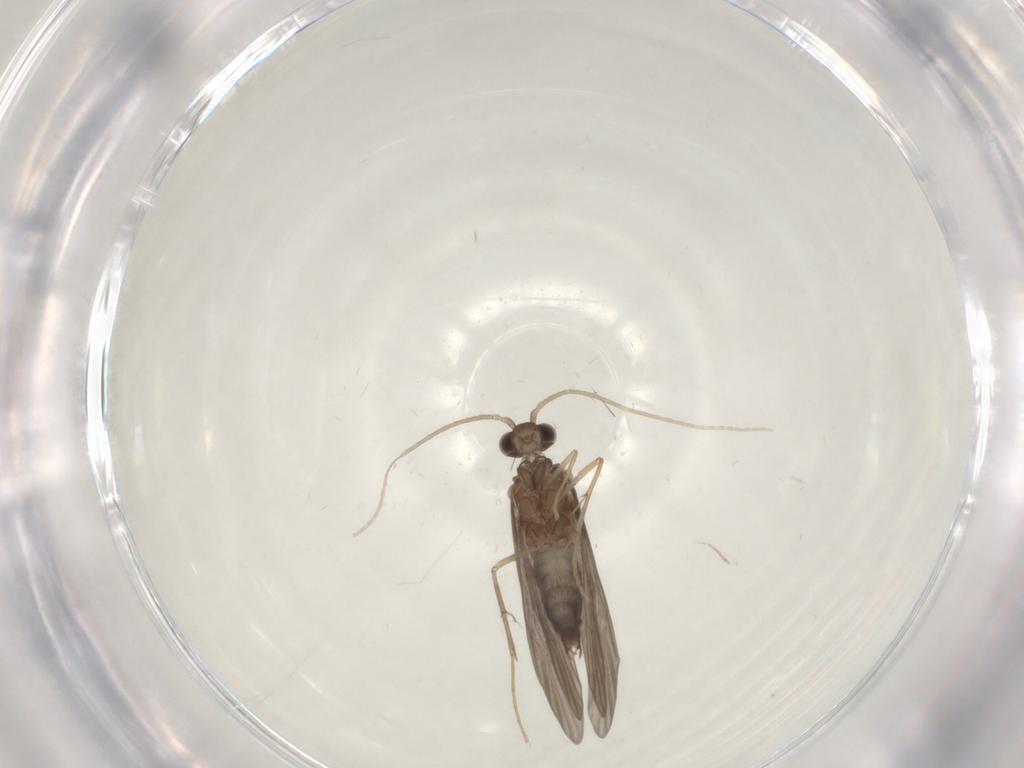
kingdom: Animalia
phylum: Arthropoda
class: Insecta
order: Trichoptera
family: Xiphocentronidae
